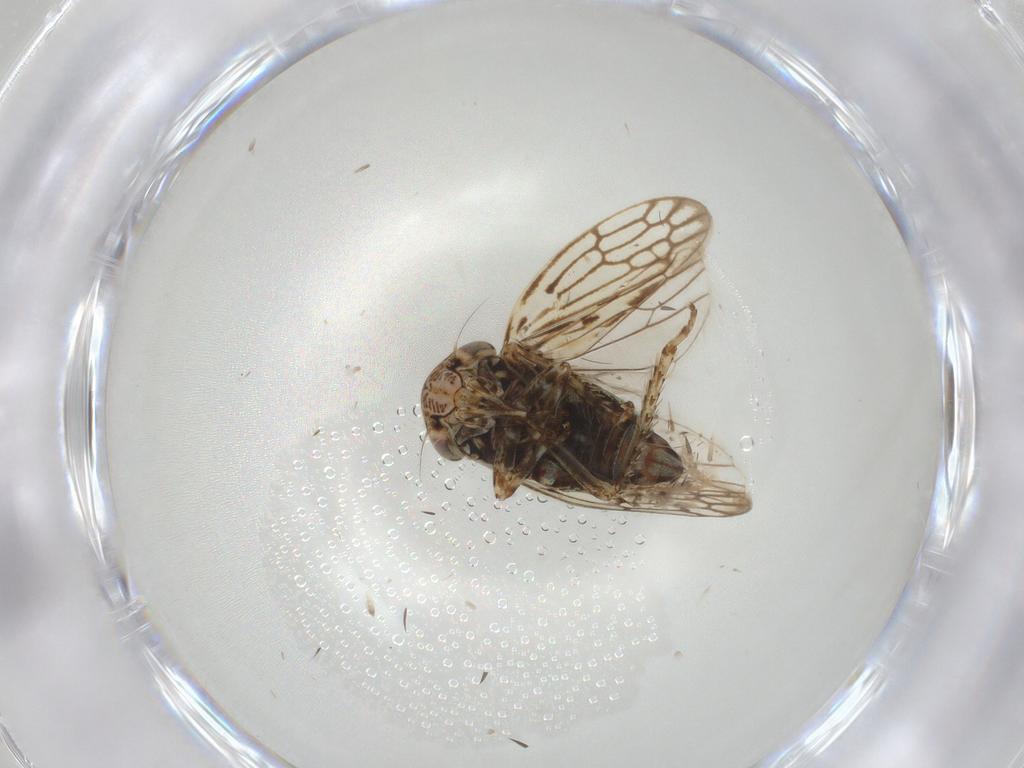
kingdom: Animalia
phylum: Arthropoda
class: Insecta
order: Hemiptera
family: Cicadellidae
